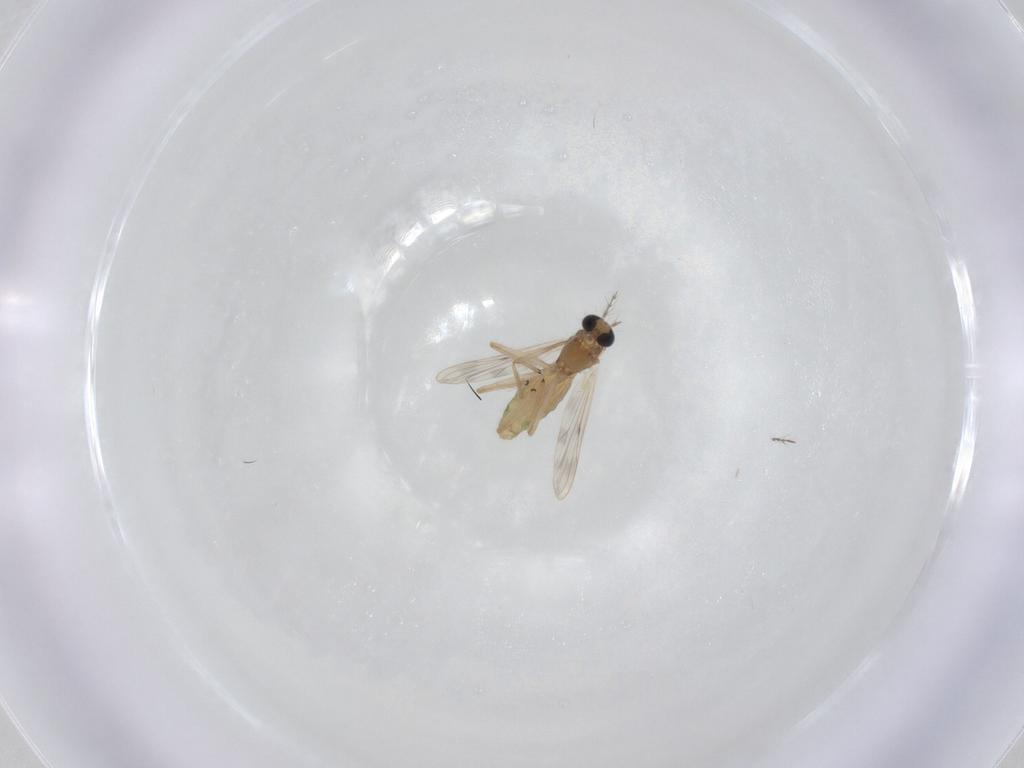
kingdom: Animalia
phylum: Arthropoda
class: Insecta
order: Diptera
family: Chironomidae
